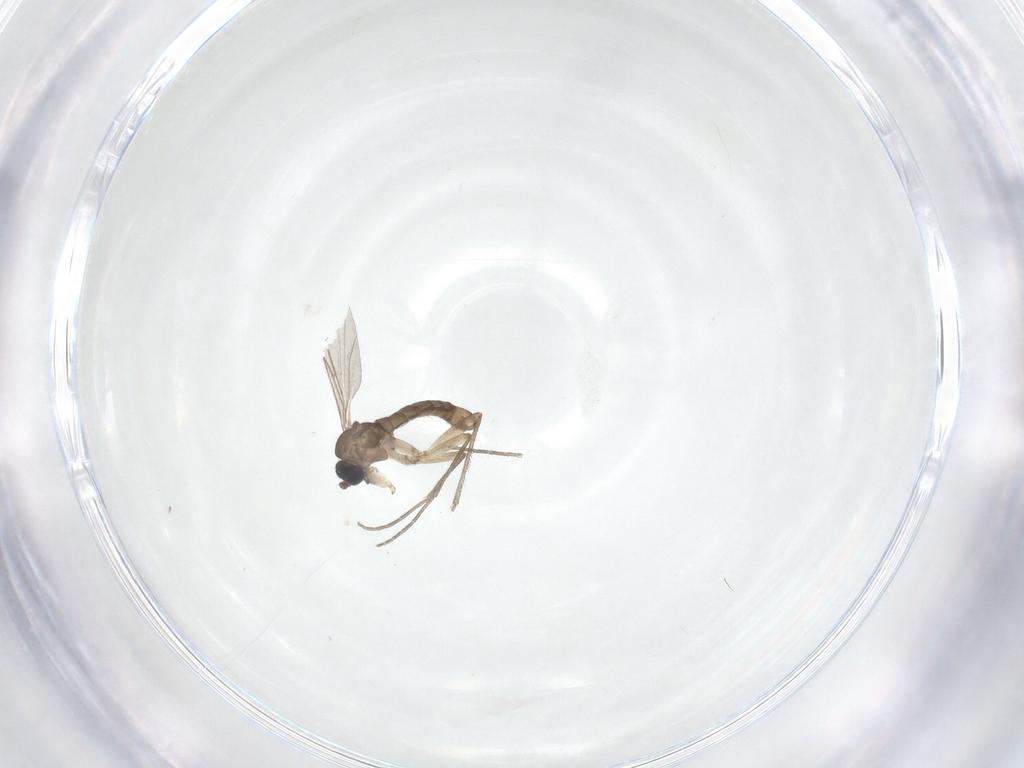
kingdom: Animalia
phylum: Arthropoda
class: Insecta
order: Diptera
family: Sciaridae
